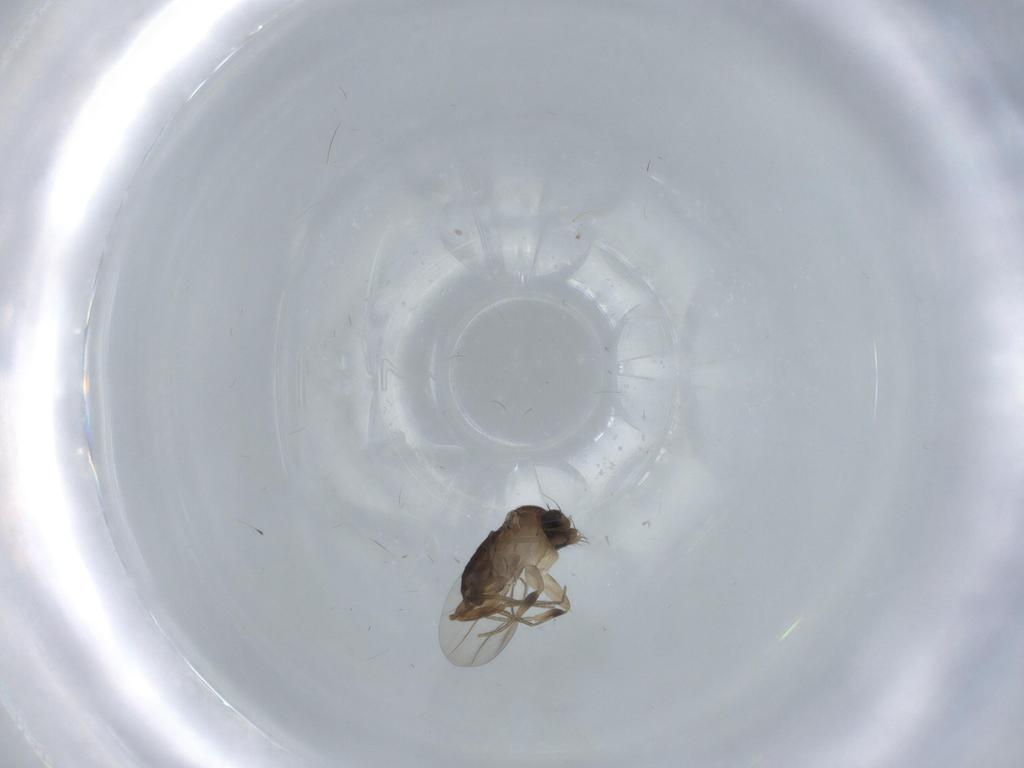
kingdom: Animalia
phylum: Arthropoda
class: Insecta
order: Diptera
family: Phoridae
